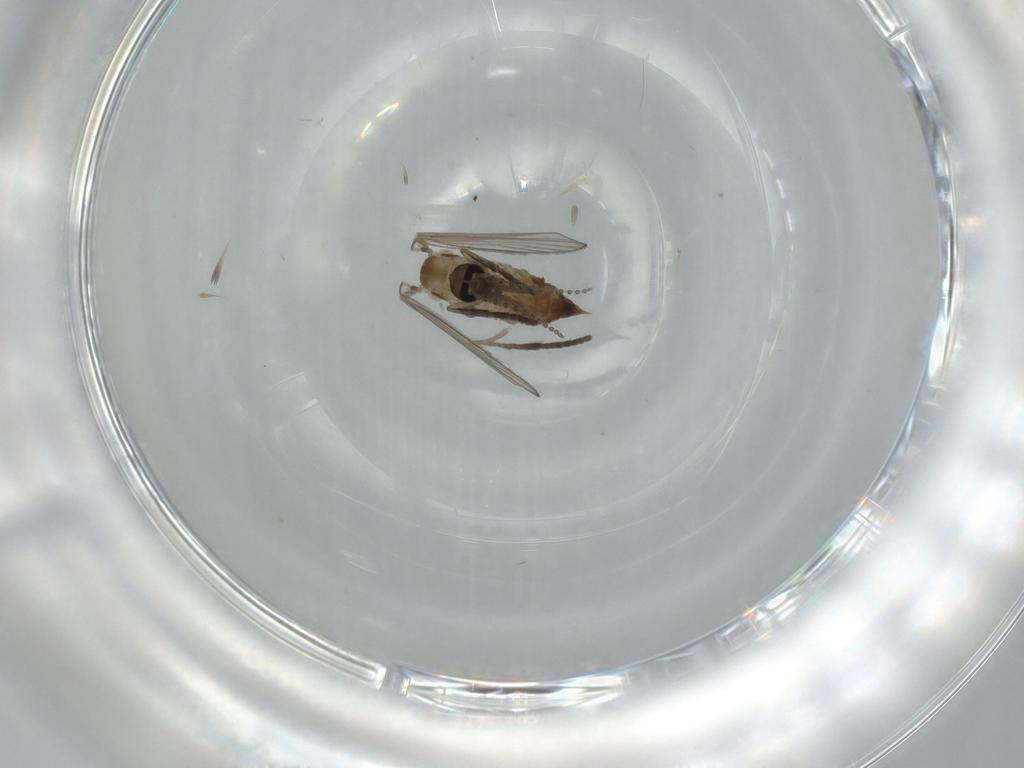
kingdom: Animalia
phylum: Arthropoda
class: Insecta
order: Diptera
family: Psychodidae
